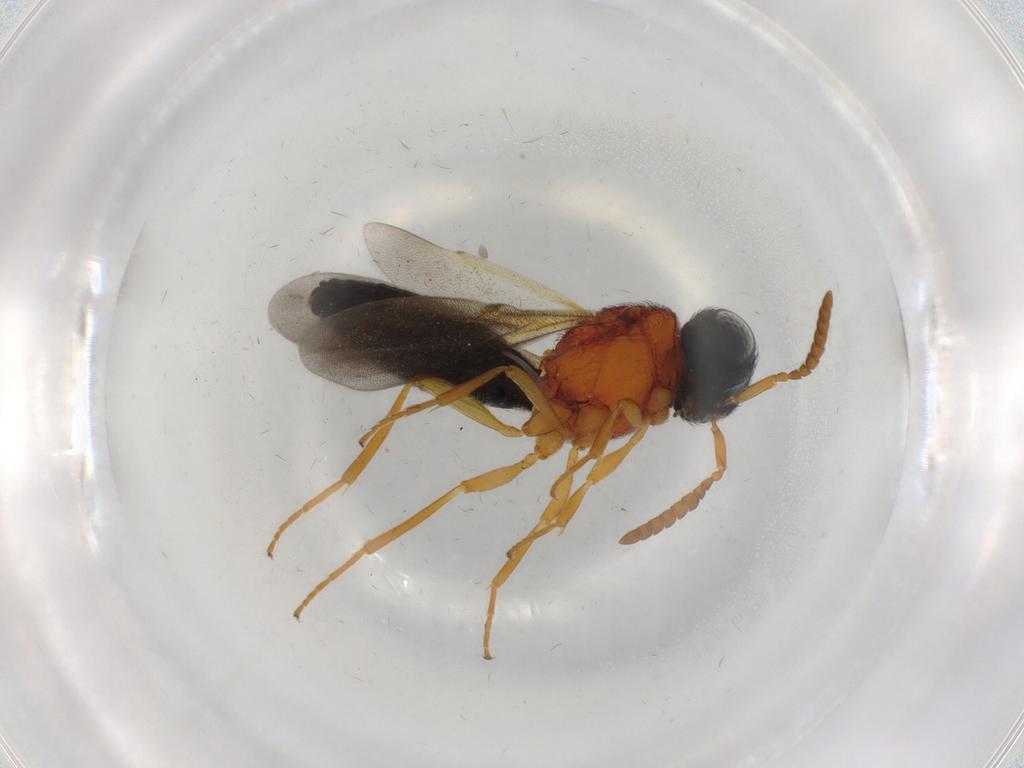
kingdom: Animalia
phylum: Arthropoda
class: Insecta
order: Hymenoptera
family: Scelionidae
